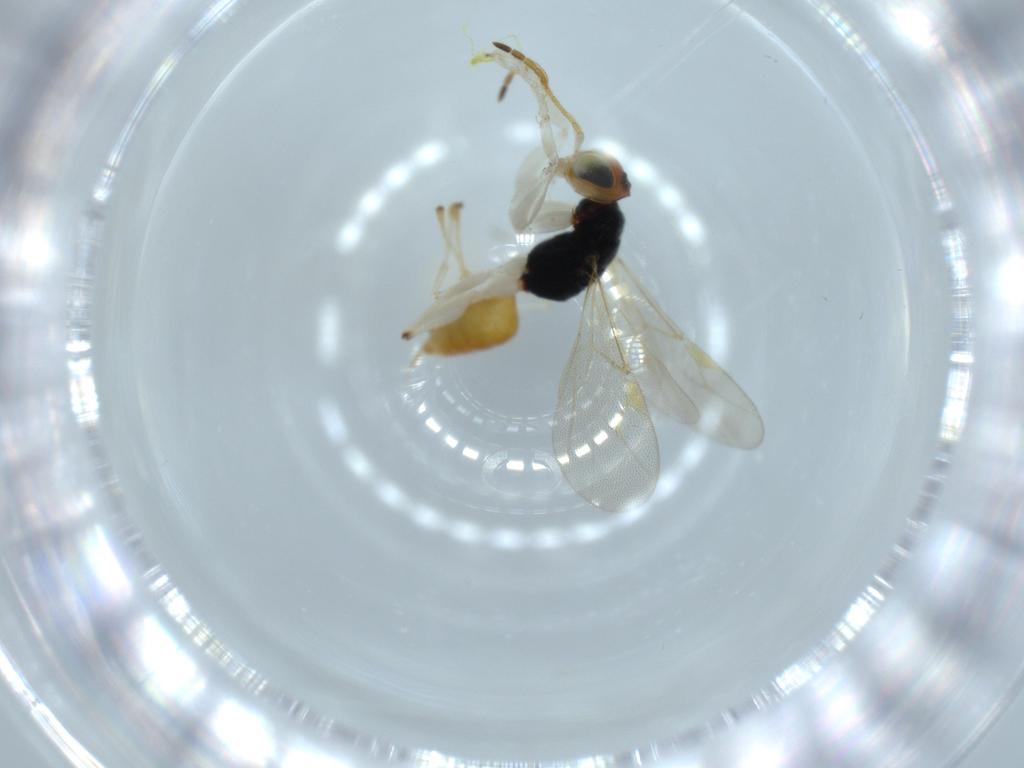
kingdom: Animalia
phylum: Arthropoda
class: Insecta
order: Hymenoptera
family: Dryinidae
